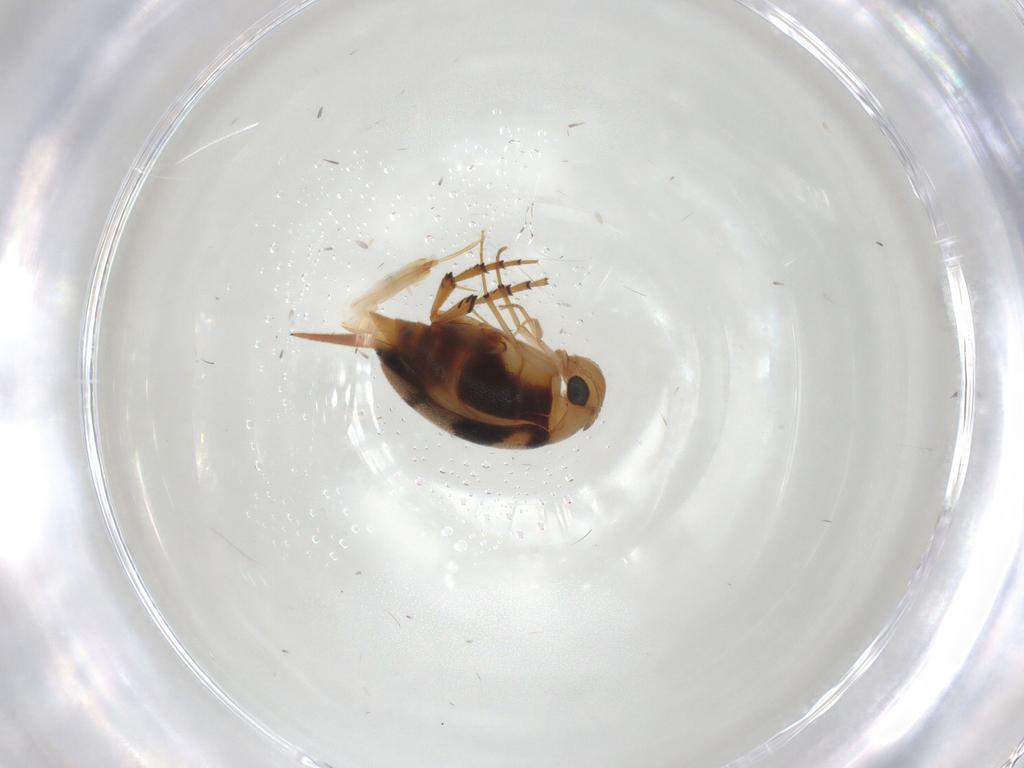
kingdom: Animalia
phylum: Arthropoda
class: Insecta
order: Coleoptera
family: Mordellidae
